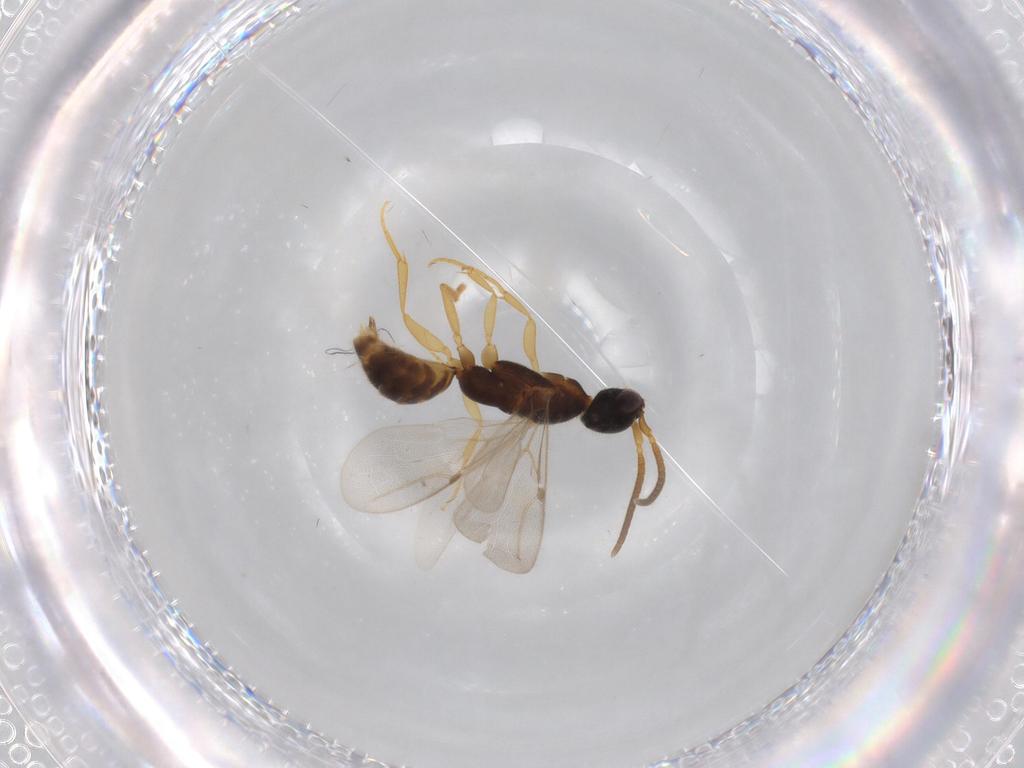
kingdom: Animalia
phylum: Arthropoda
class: Insecta
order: Hymenoptera
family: Bethylidae
